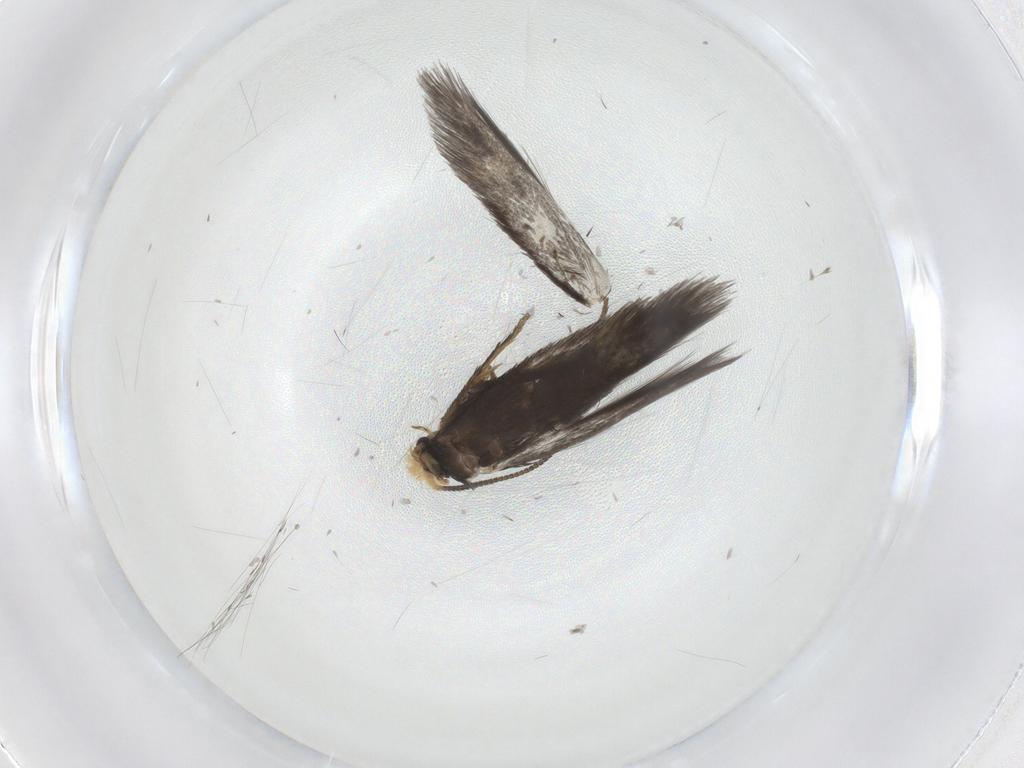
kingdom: Animalia
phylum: Arthropoda
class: Insecta
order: Lepidoptera
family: Nepticulidae
